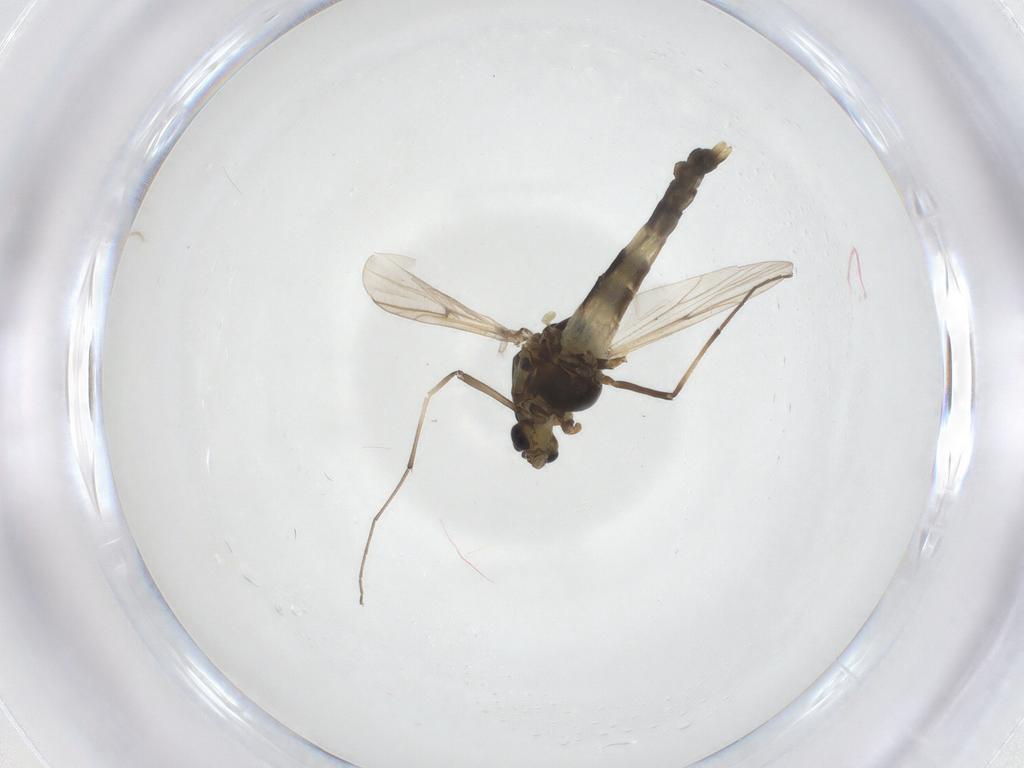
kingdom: Animalia
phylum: Arthropoda
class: Insecta
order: Diptera
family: Chironomidae
